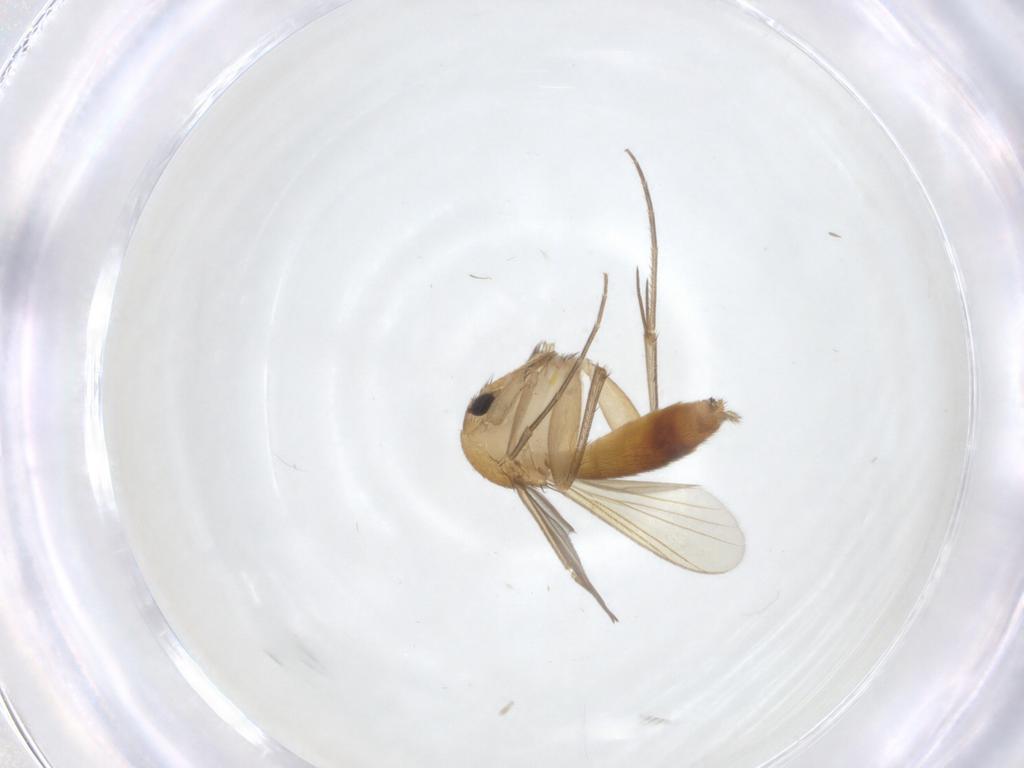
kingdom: Animalia
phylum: Arthropoda
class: Insecta
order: Diptera
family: Mycetophilidae
